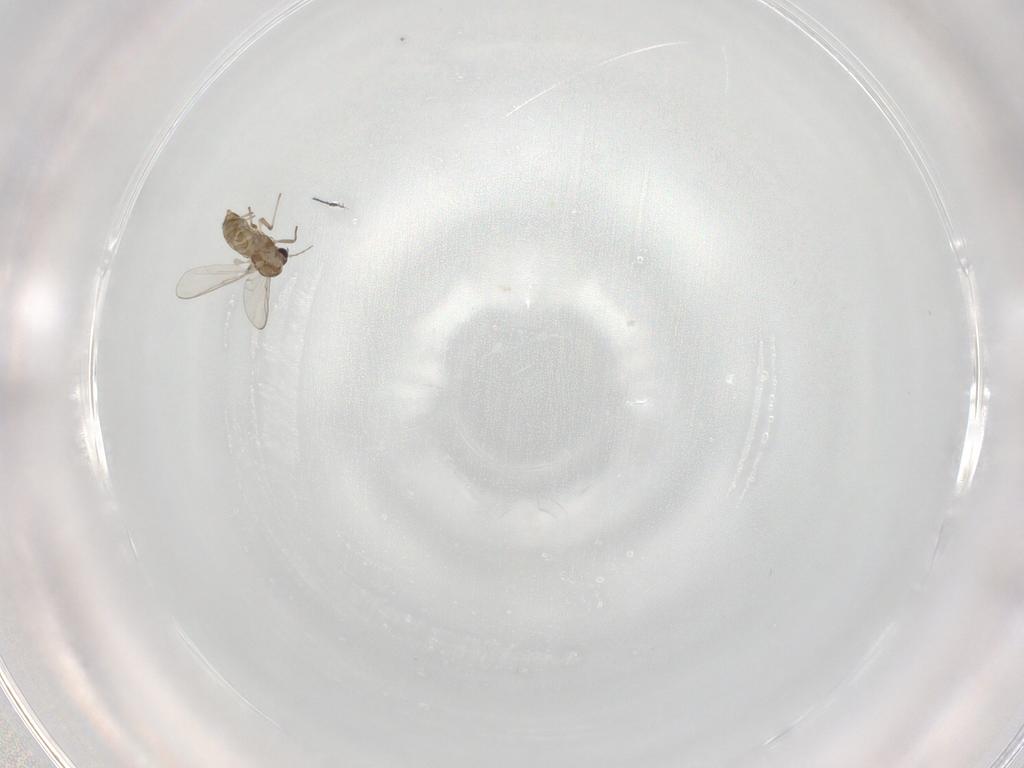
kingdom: Animalia
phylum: Arthropoda
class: Insecta
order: Diptera
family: Chironomidae
